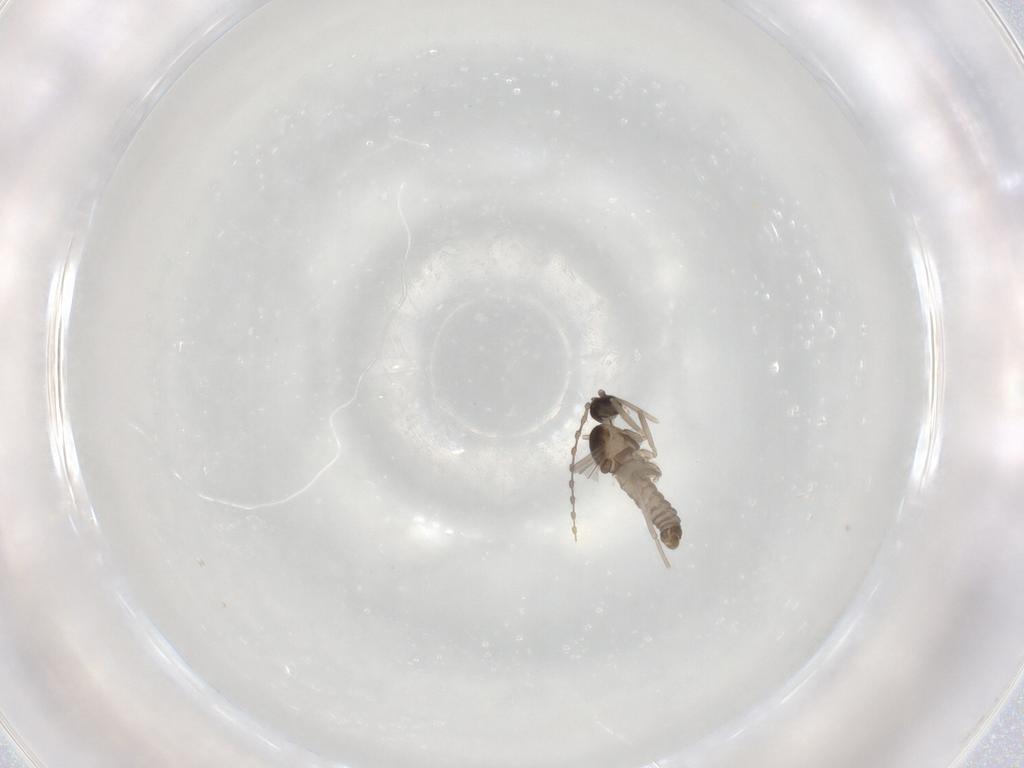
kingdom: Animalia
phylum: Arthropoda
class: Insecta
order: Diptera
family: Cecidomyiidae
